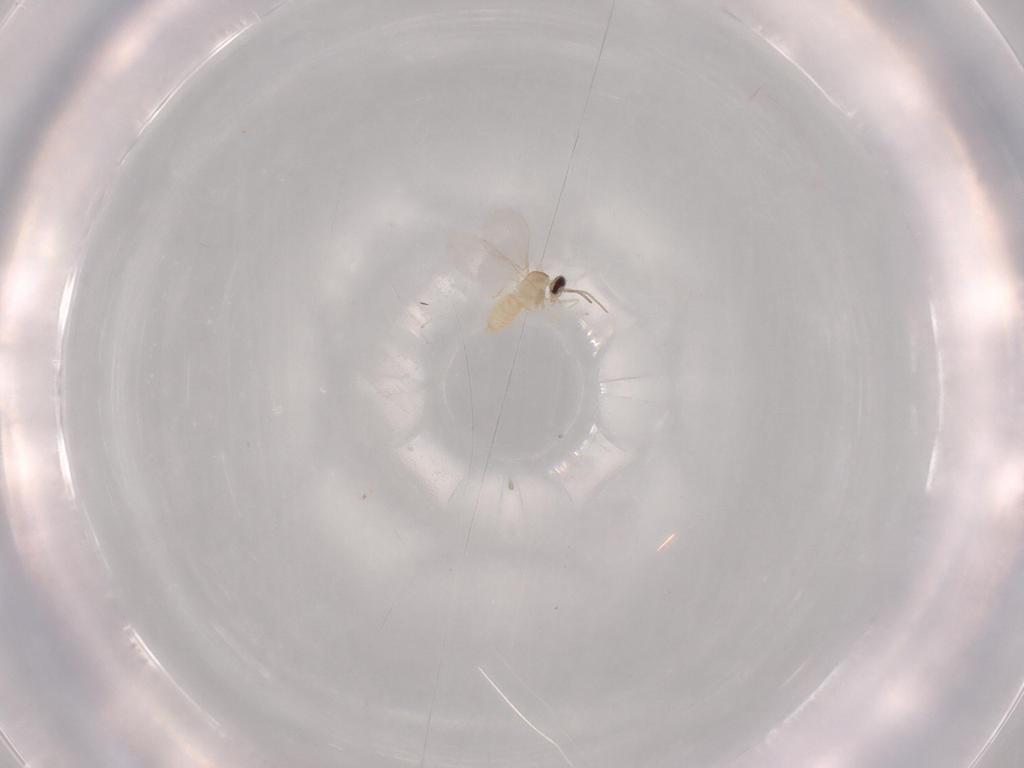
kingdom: Animalia
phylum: Arthropoda
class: Insecta
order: Diptera
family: Cecidomyiidae
